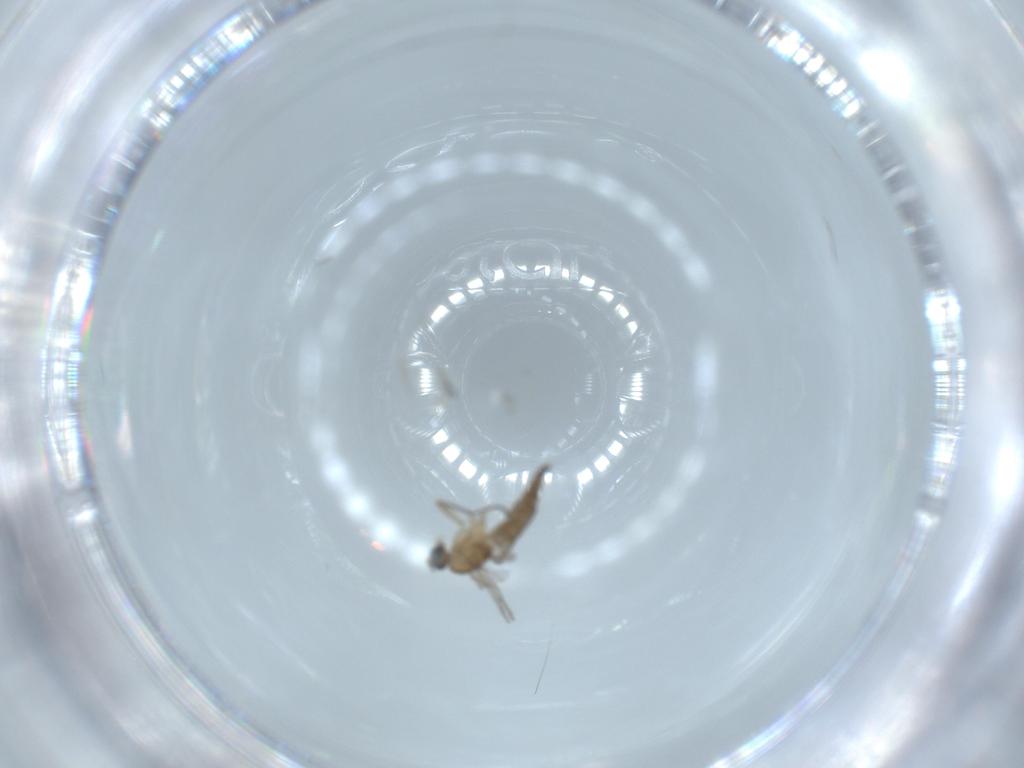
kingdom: Animalia
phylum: Arthropoda
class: Insecta
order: Diptera
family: Sciaridae
